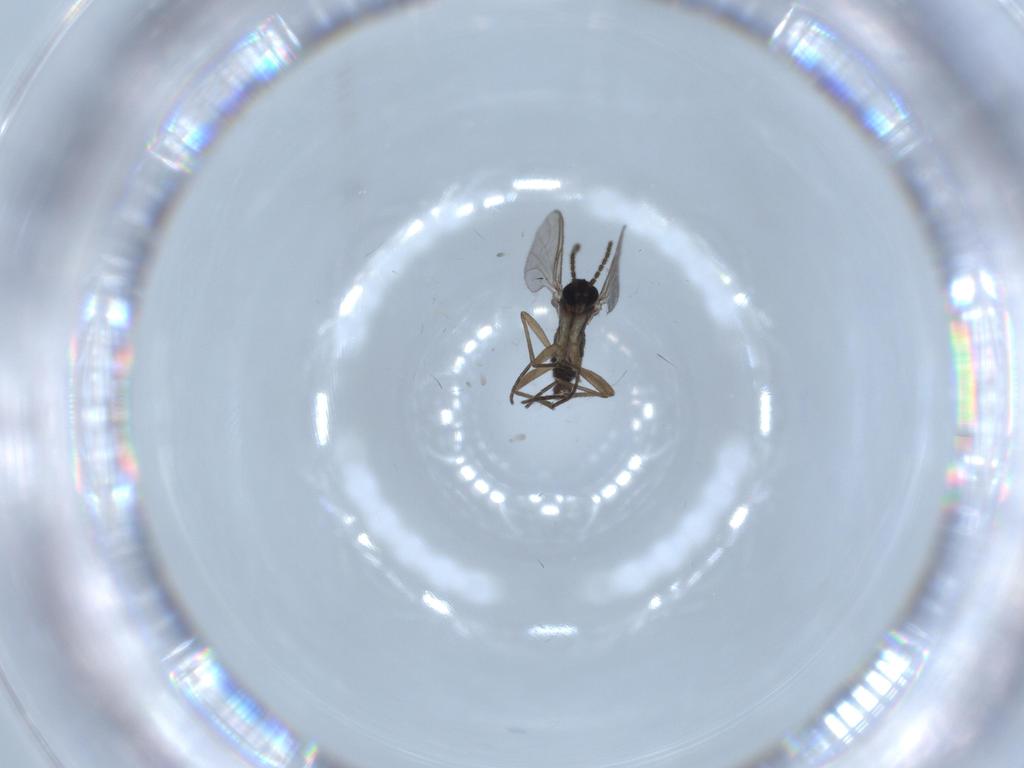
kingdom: Animalia
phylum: Arthropoda
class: Insecta
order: Diptera
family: Sciaridae
